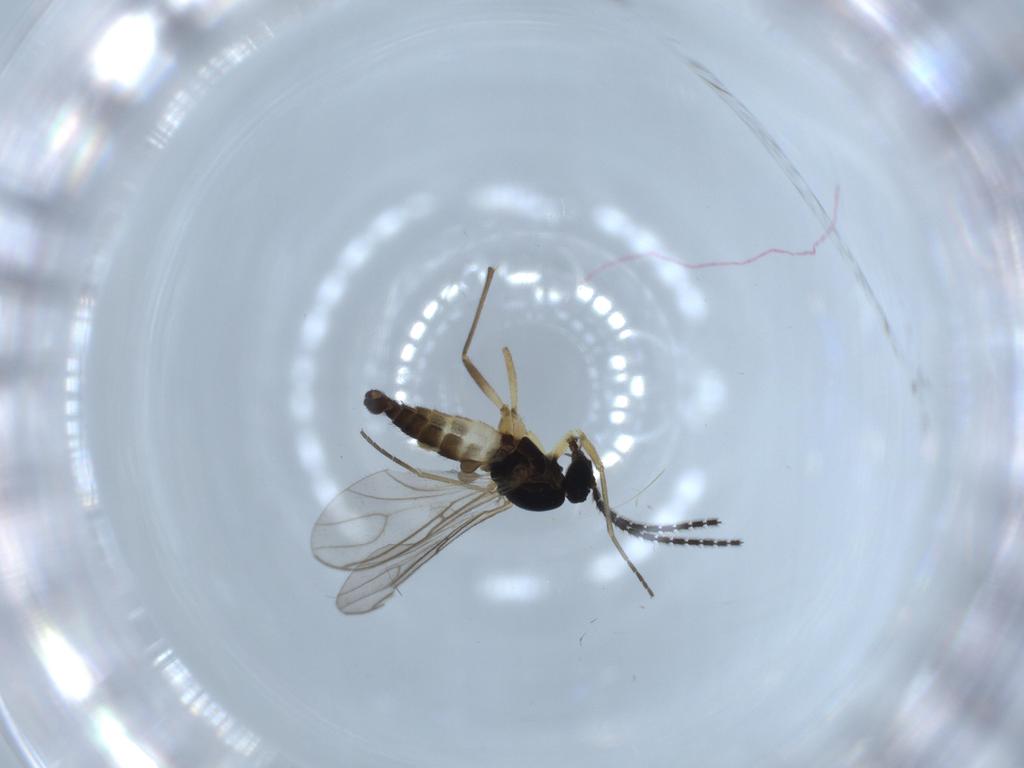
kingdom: Animalia
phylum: Arthropoda
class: Insecta
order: Diptera
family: Sciaridae
